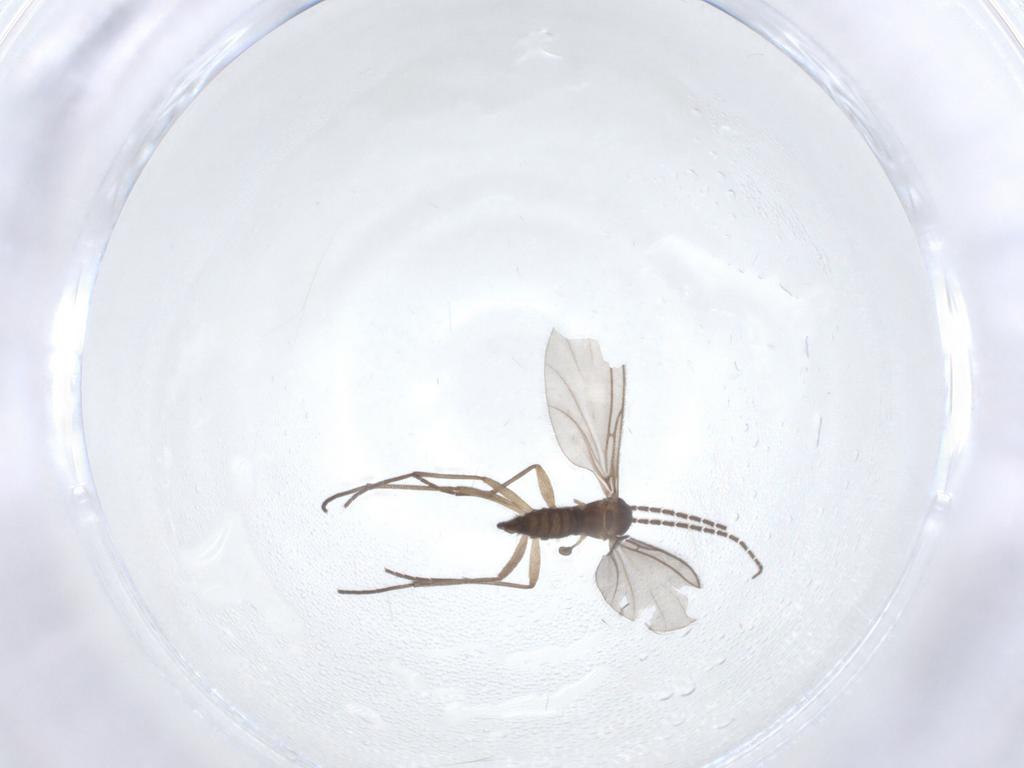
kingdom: Animalia
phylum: Arthropoda
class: Insecta
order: Diptera
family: Sciaridae
